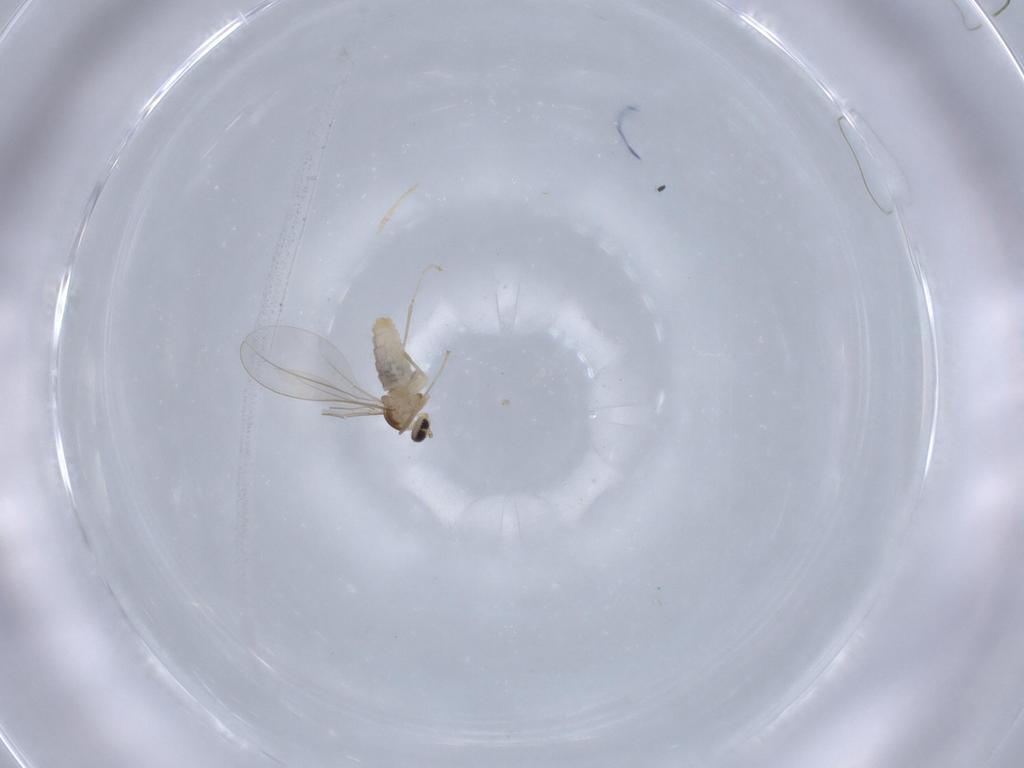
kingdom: Animalia
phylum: Arthropoda
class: Insecta
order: Diptera
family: Cecidomyiidae
